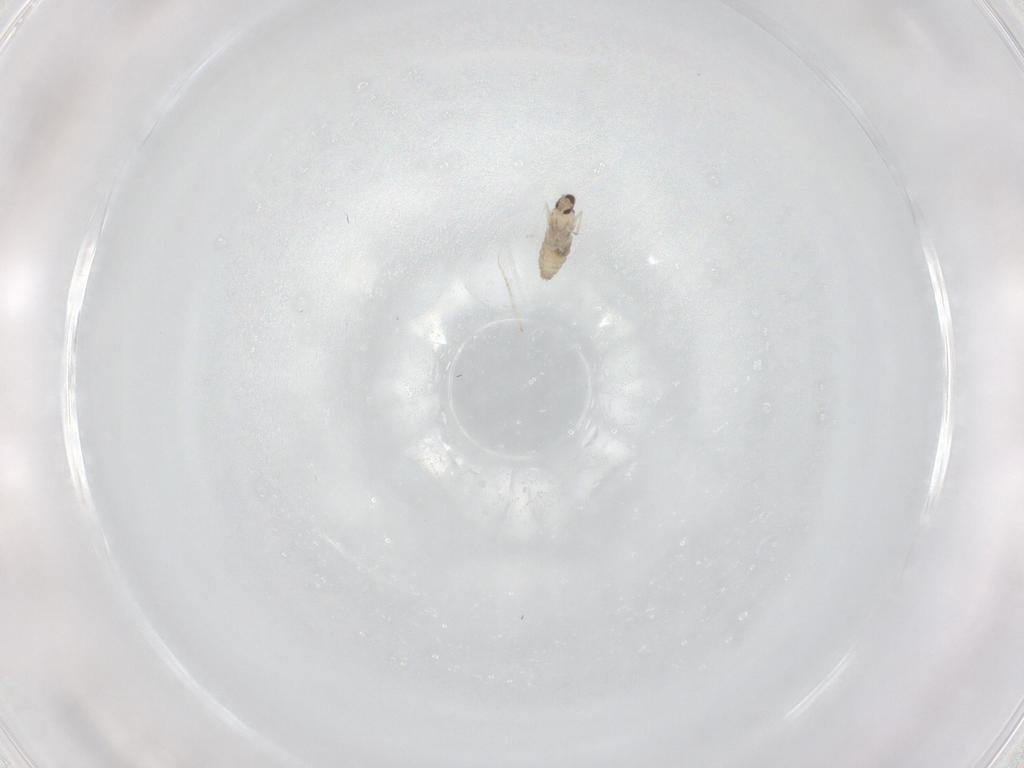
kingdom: Animalia
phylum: Arthropoda
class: Insecta
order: Diptera
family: Cecidomyiidae
